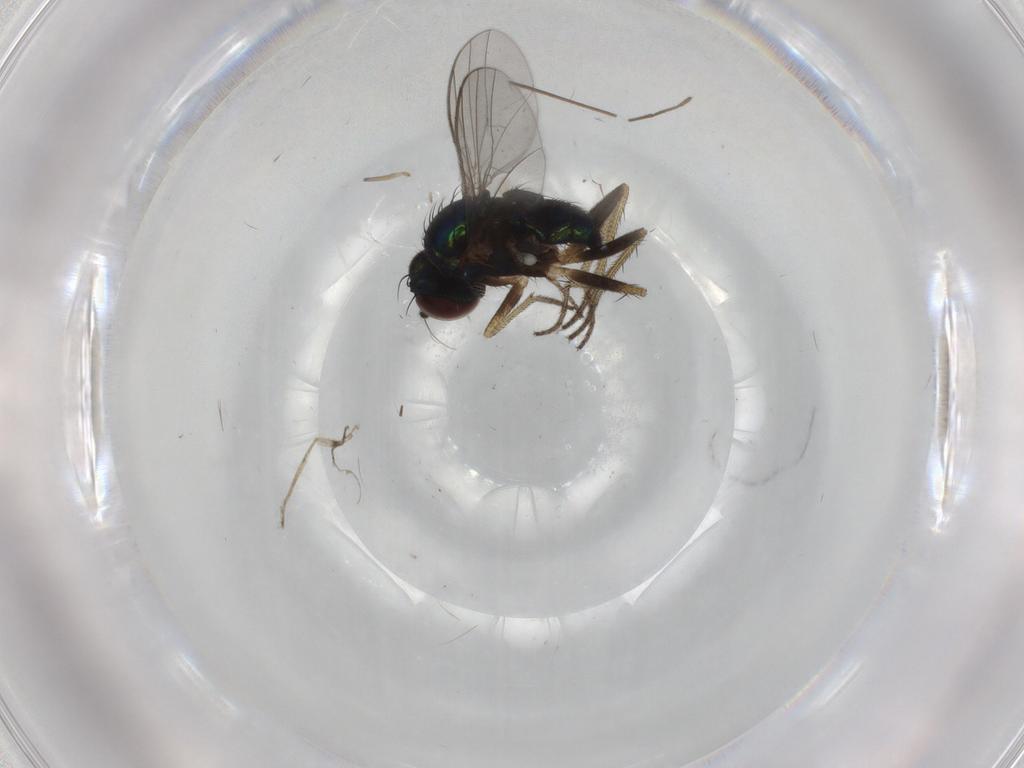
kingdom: Animalia
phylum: Arthropoda
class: Insecta
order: Diptera
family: Dolichopodidae
